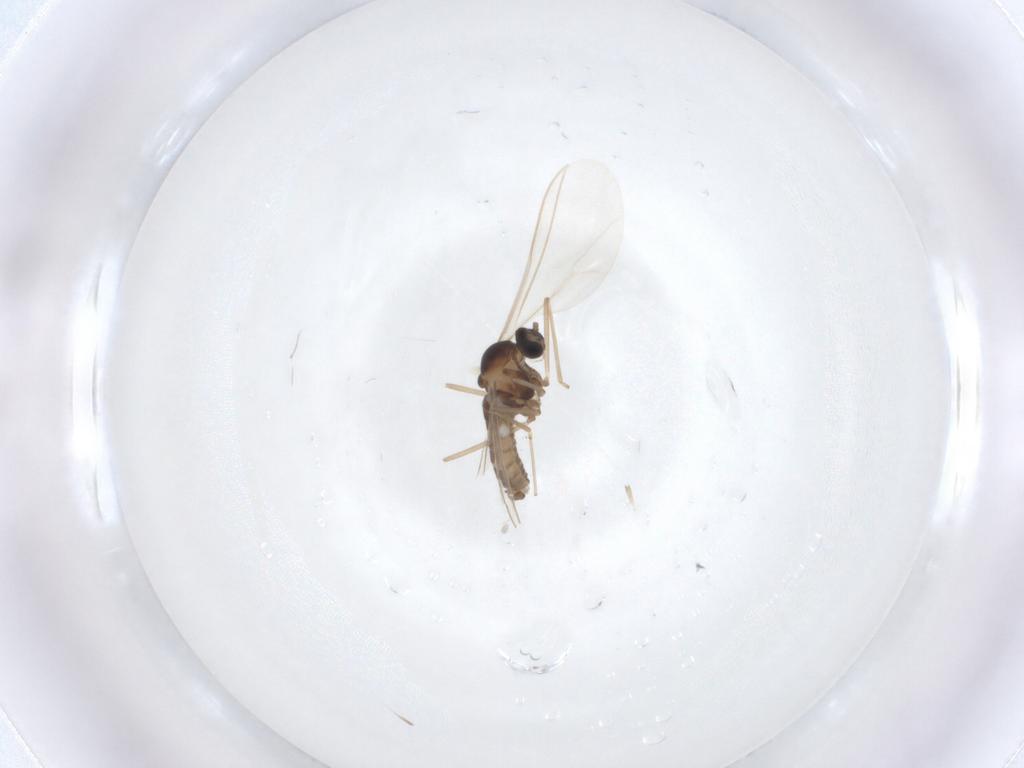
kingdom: Animalia
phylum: Arthropoda
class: Insecta
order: Diptera
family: Cecidomyiidae
